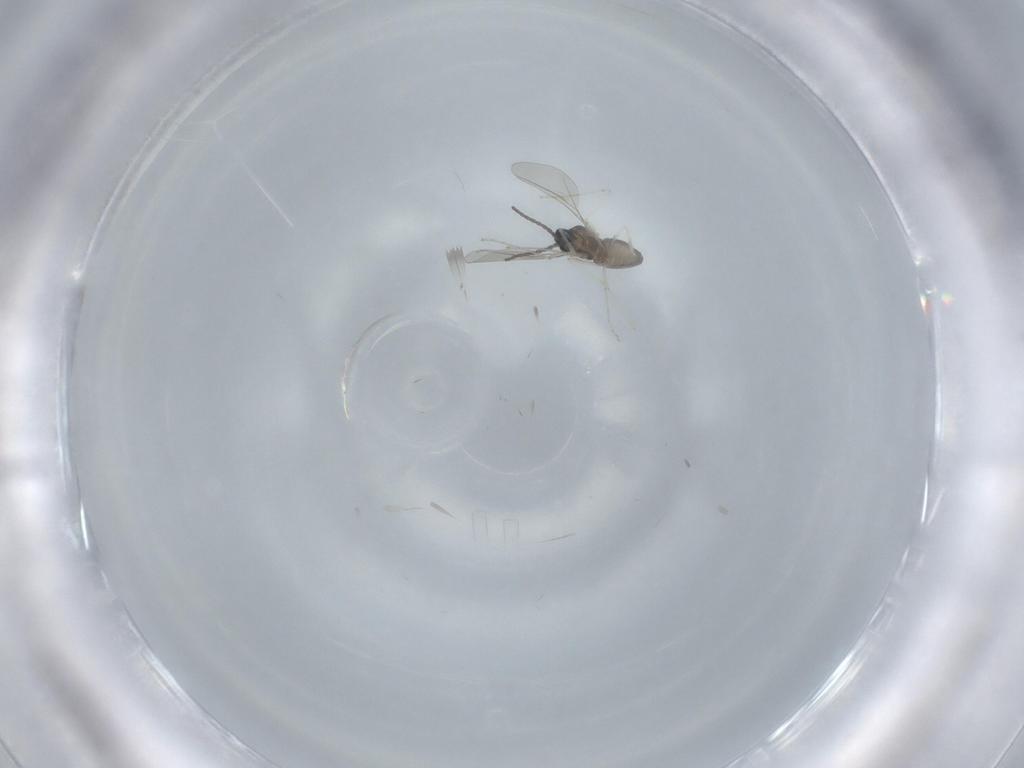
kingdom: Animalia
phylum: Arthropoda
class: Insecta
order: Diptera
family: Cecidomyiidae
